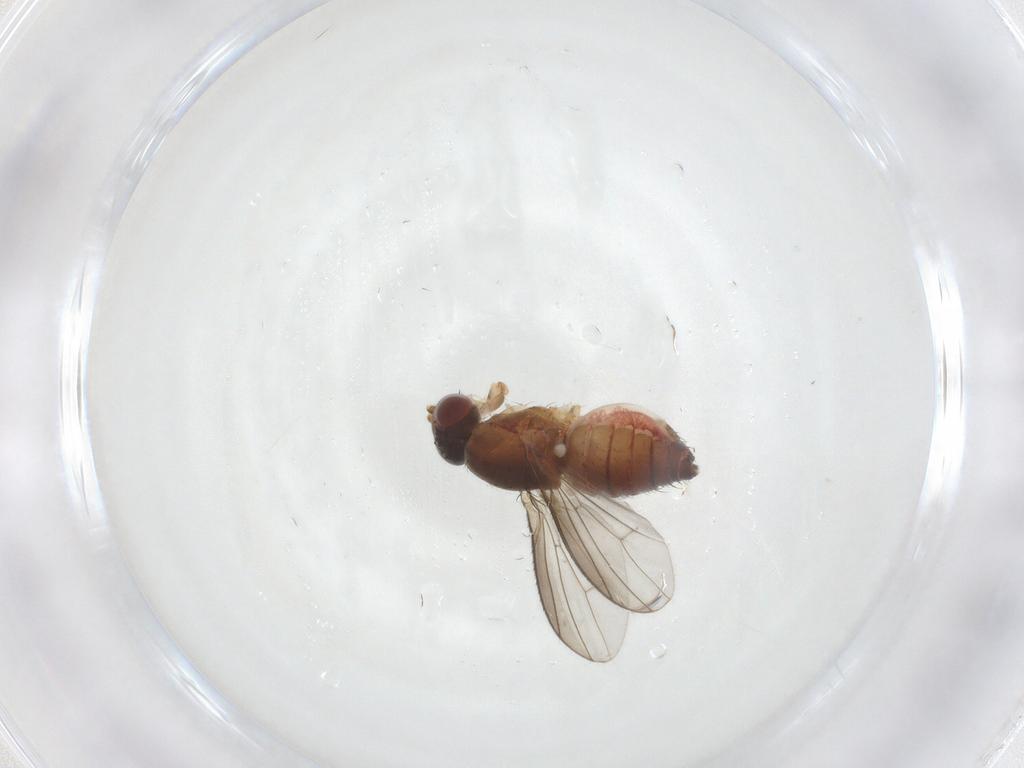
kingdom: Animalia
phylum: Arthropoda
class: Insecta
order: Diptera
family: Heleomyzidae
